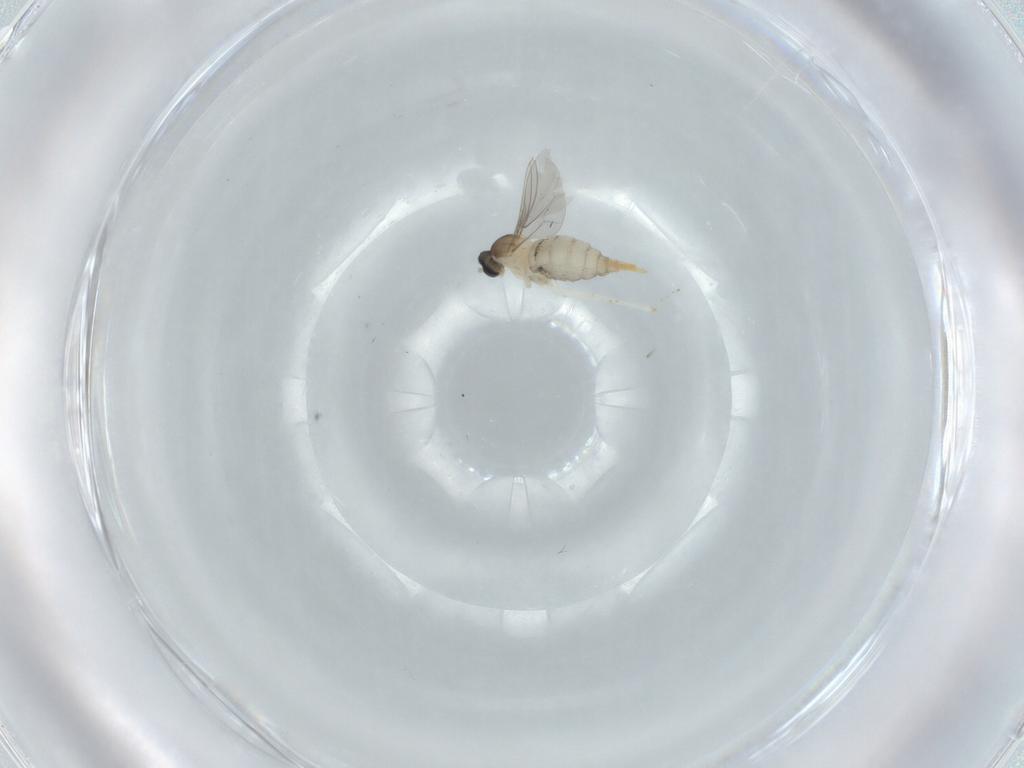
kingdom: Animalia
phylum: Arthropoda
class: Insecta
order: Diptera
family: Cecidomyiidae
